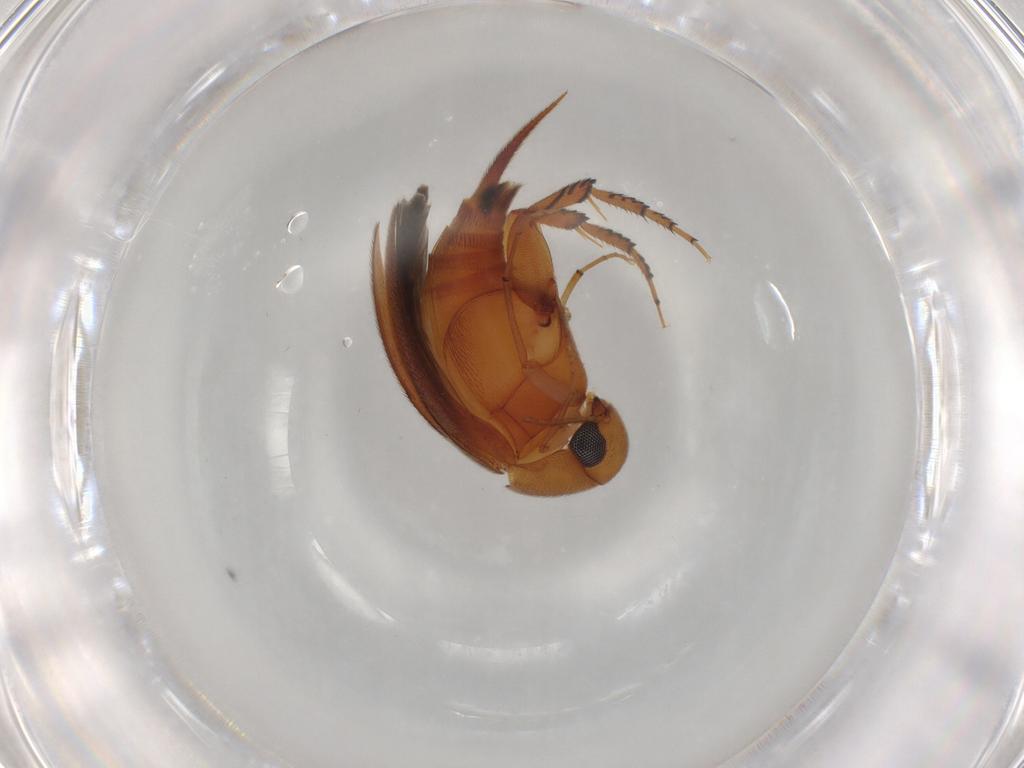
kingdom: Animalia
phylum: Arthropoda
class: Insecta
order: Coleoptera
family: Mordellidae
